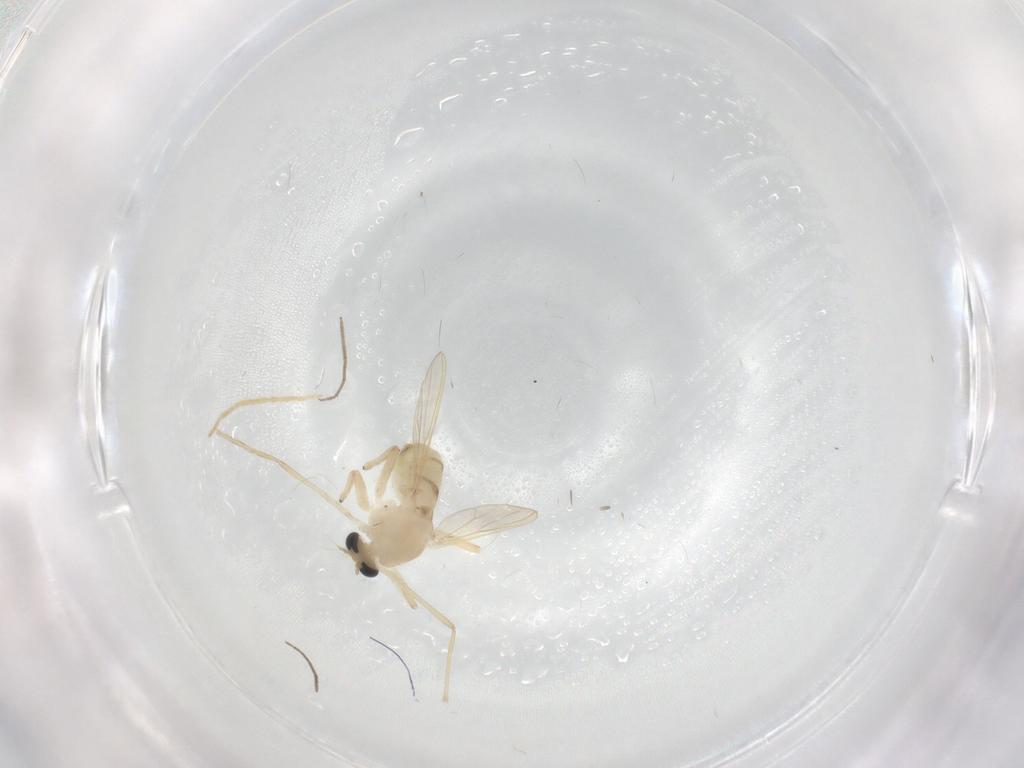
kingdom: Animalia
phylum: Arthropoda
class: Insecta
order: Diptera
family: Chironomidae
